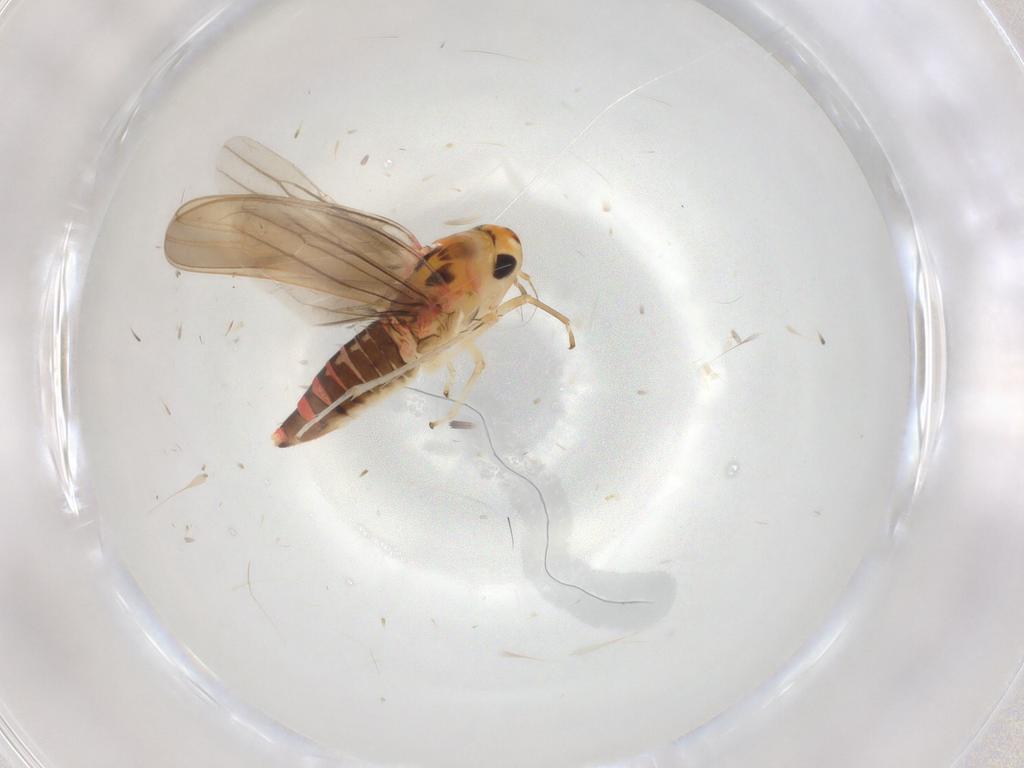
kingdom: Animalia
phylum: Arthropoda
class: Insecta
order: Hemiptera
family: Cicadellidae
